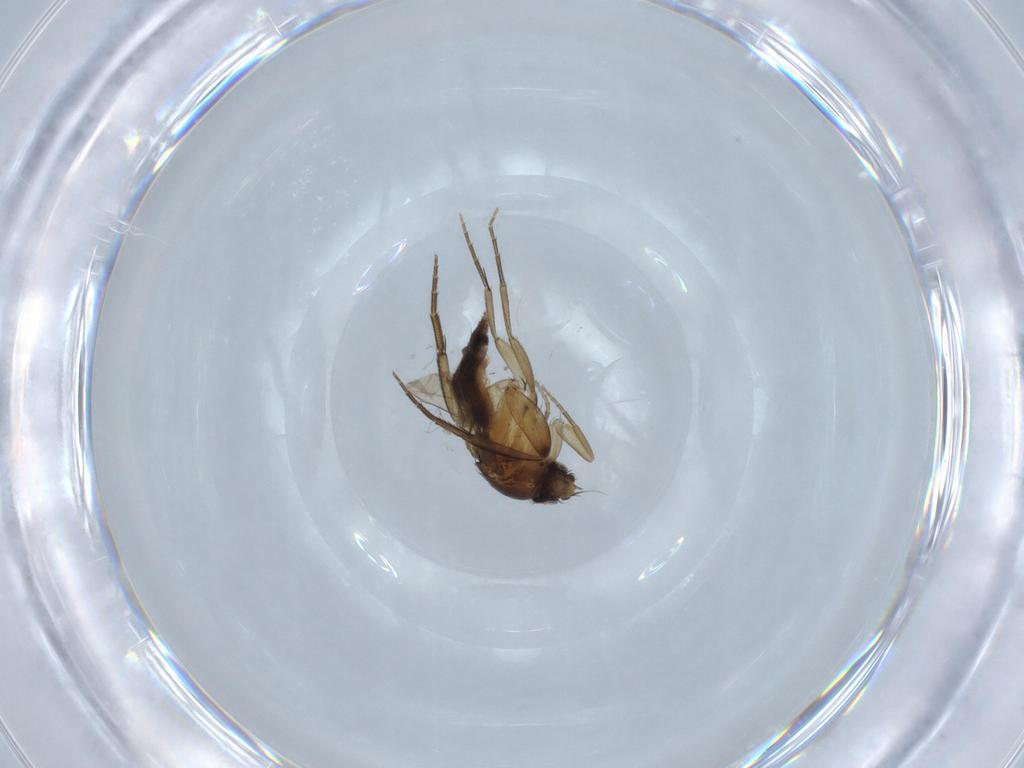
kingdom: Animalia
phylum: Arthropoda
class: Insecta
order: Diptera
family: Phoridae
